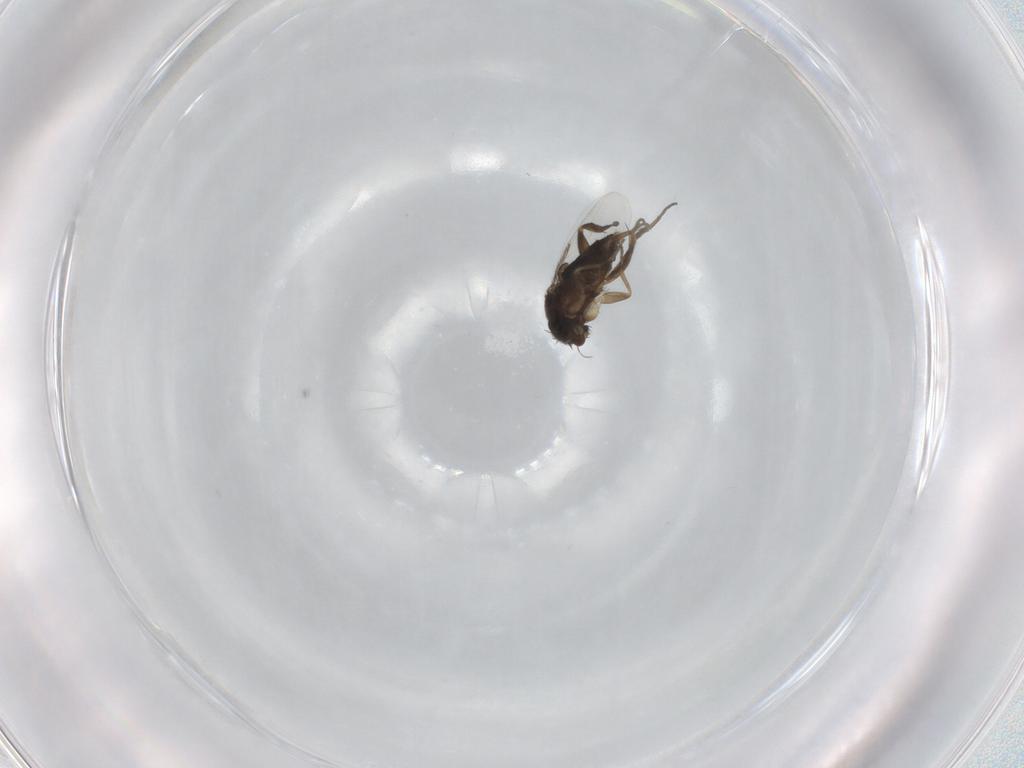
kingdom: Animalia
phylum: Arthropoda
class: Insecta
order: Diptera
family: Phoridae
